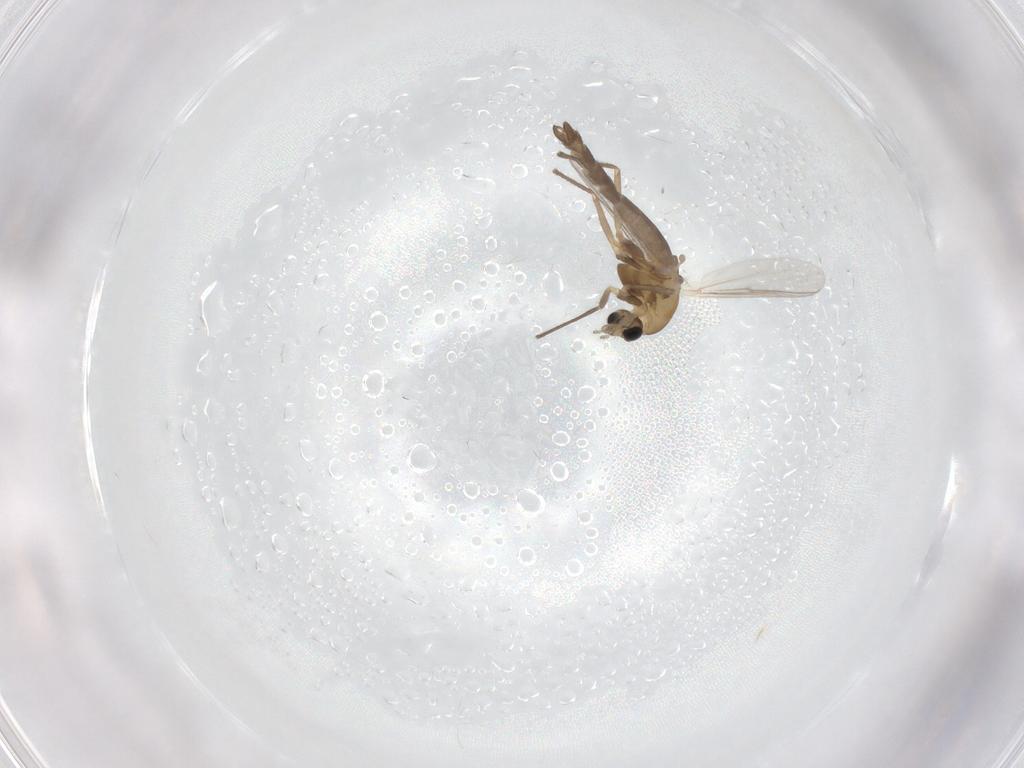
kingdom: Animalia
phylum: Arthropoda
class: Insecta
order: Diptera
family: Chironomidae
